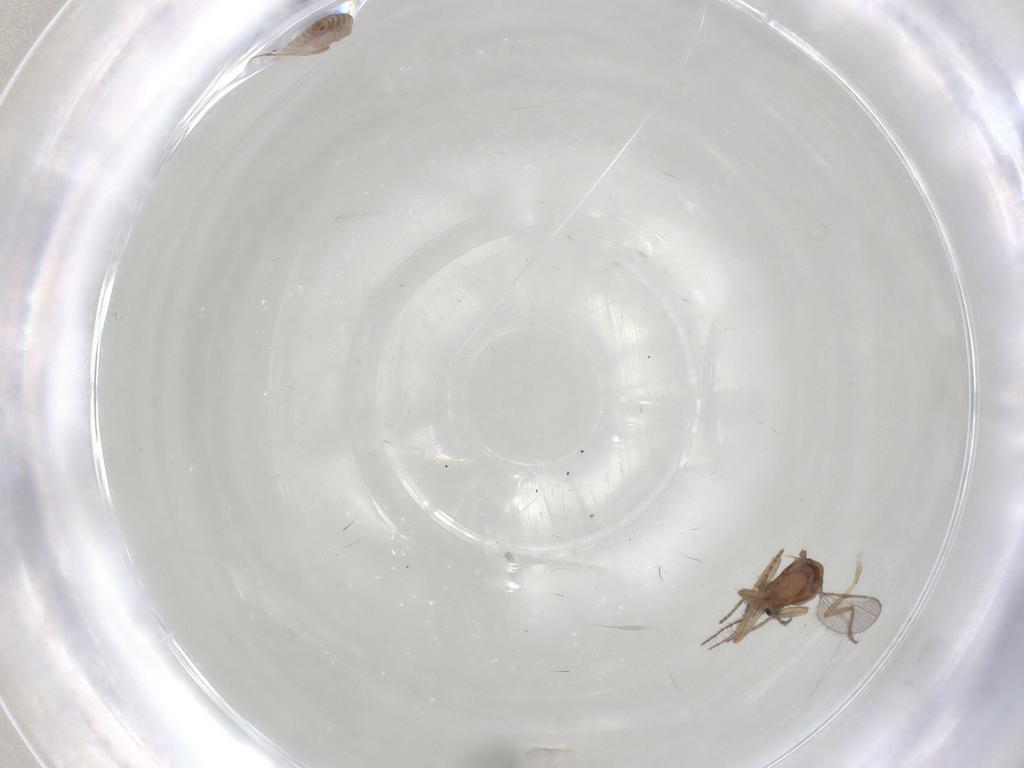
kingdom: Animalia
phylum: Arthropoda
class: Insecta
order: Diptera
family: Ceratopogonidae
